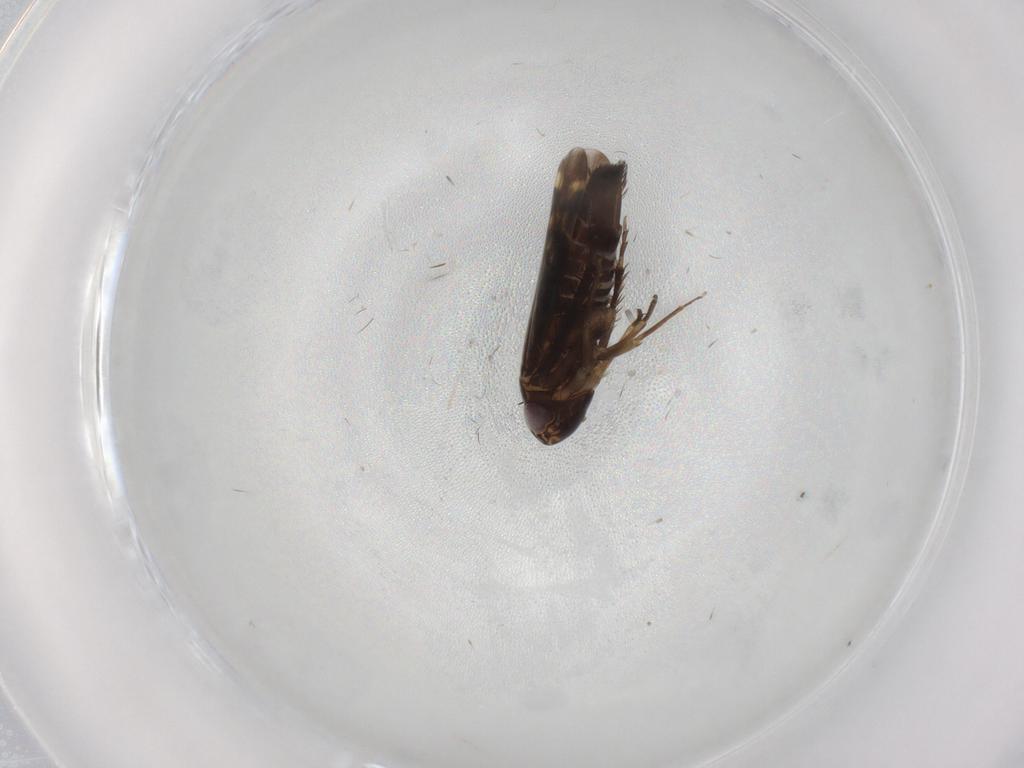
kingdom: Animalia
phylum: Arthropoda
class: Insecta
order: Hemiptera
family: Cicadellidae
